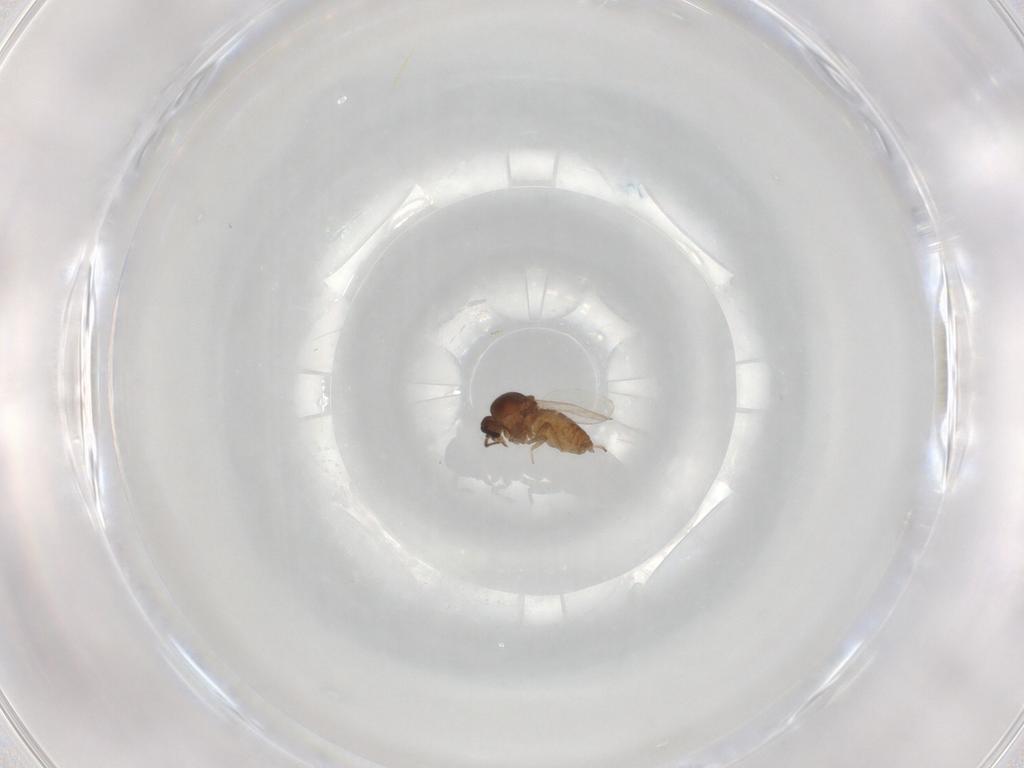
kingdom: Animalia
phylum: Arthropoda
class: Insecta
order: Diptera
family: Ceratopogonidae
